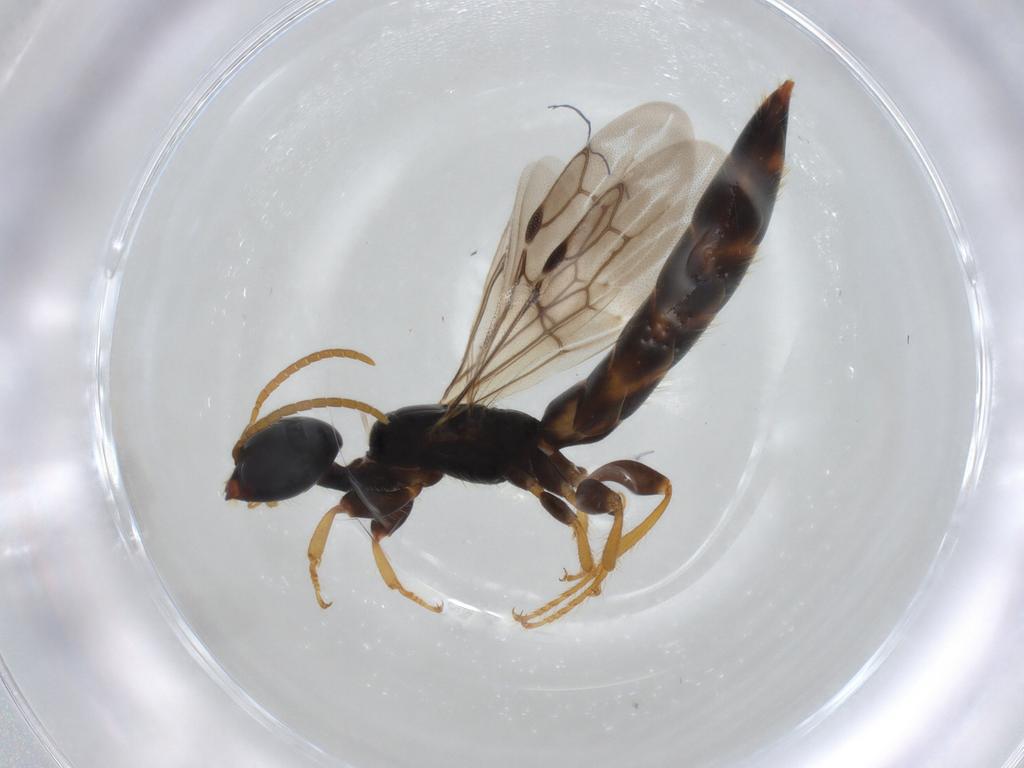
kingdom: Animalia
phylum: Arthropoda
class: Insecta
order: Hymenoptera
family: Scolebythidae
